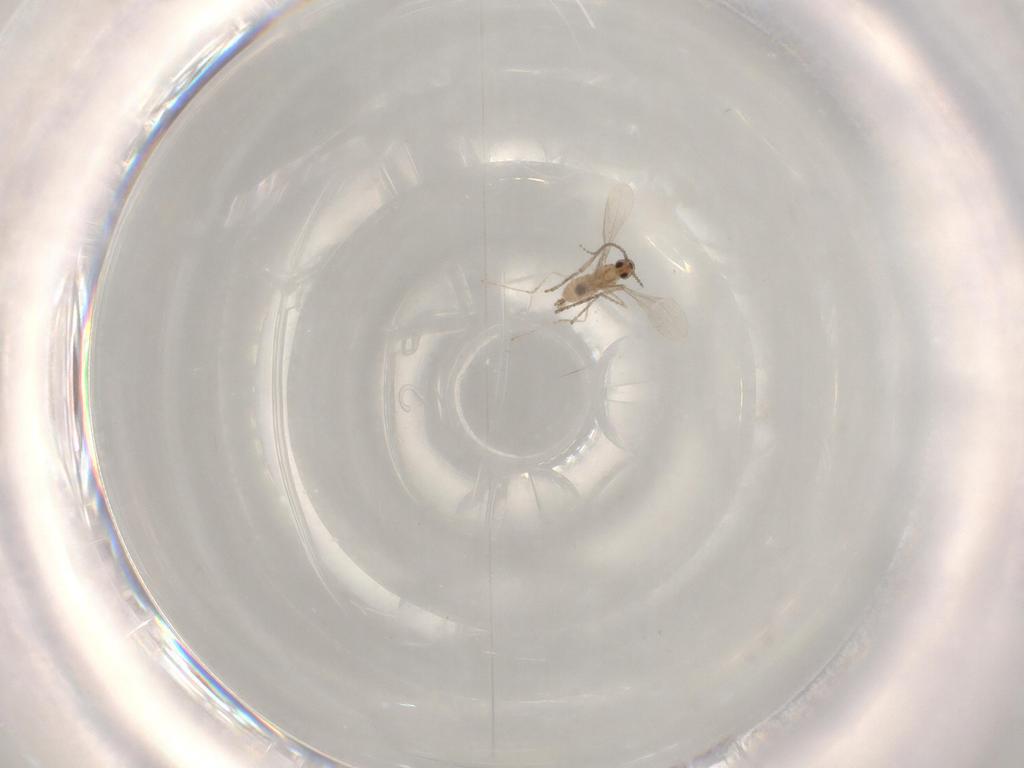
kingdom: Animalia
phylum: Arthropoda
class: Insecta
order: Diptera
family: Cecidomyiidae
